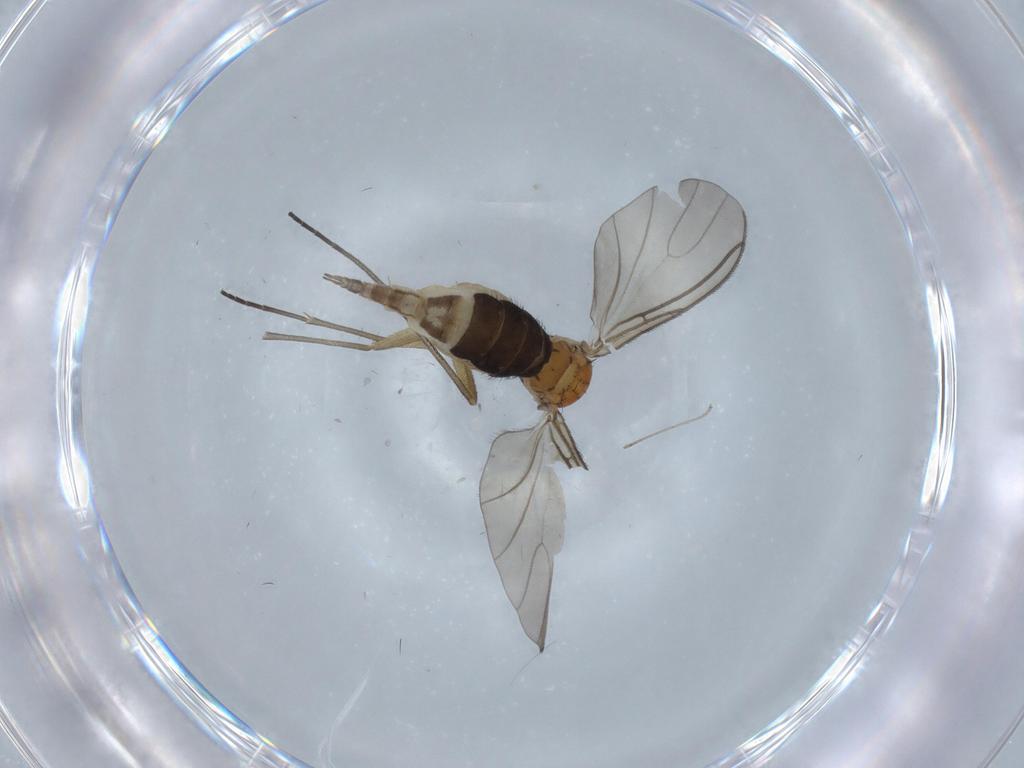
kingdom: Animalia
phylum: Arthropoda
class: Insecta
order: Diptera
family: Sciaridae
